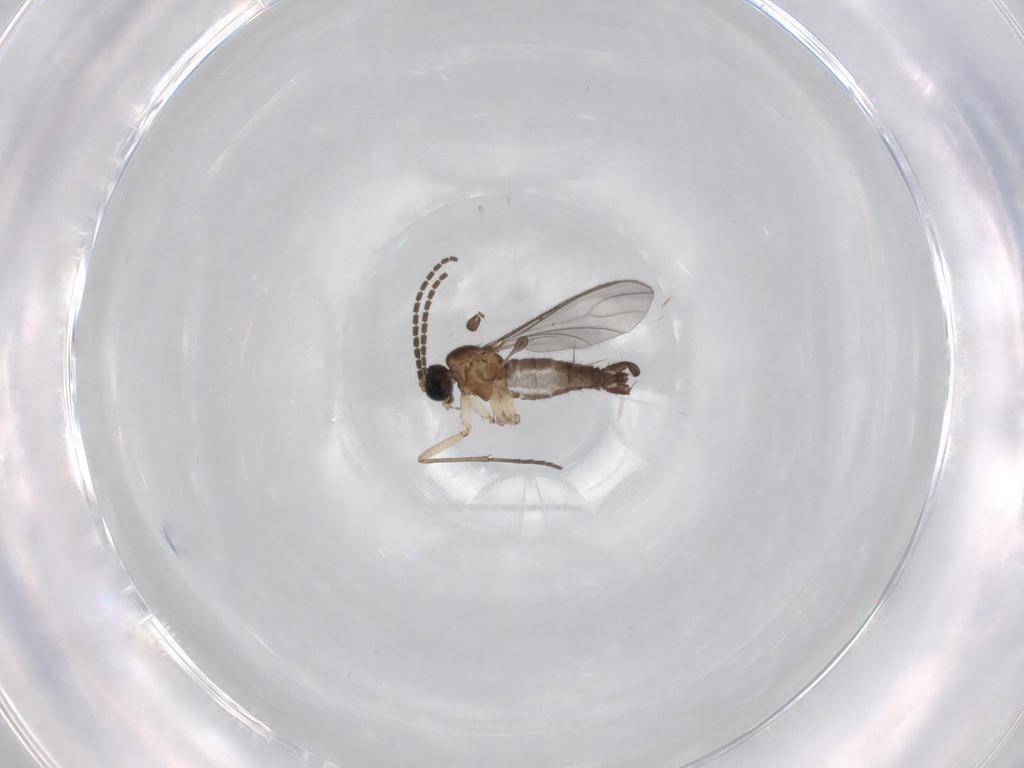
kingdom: Animalia
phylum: Arthropoda
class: Insecta
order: Diptera
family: Sciaridae
